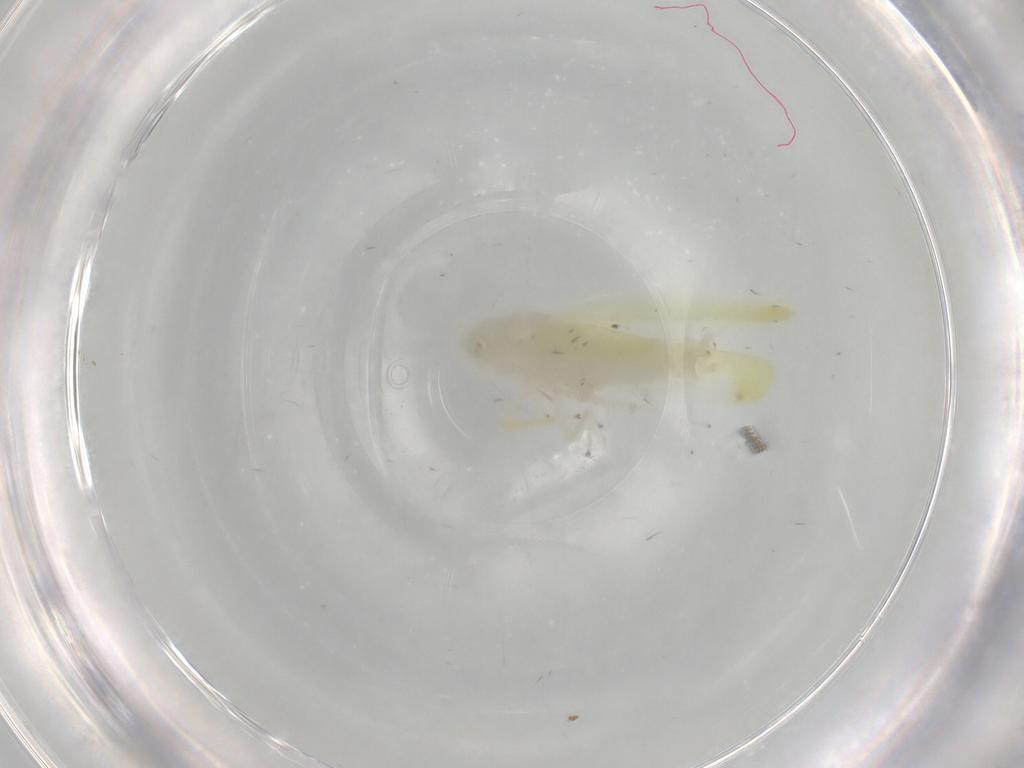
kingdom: Animalia
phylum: Arthropoda
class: Insecta
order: Hemiptera
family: Cicadellidae
